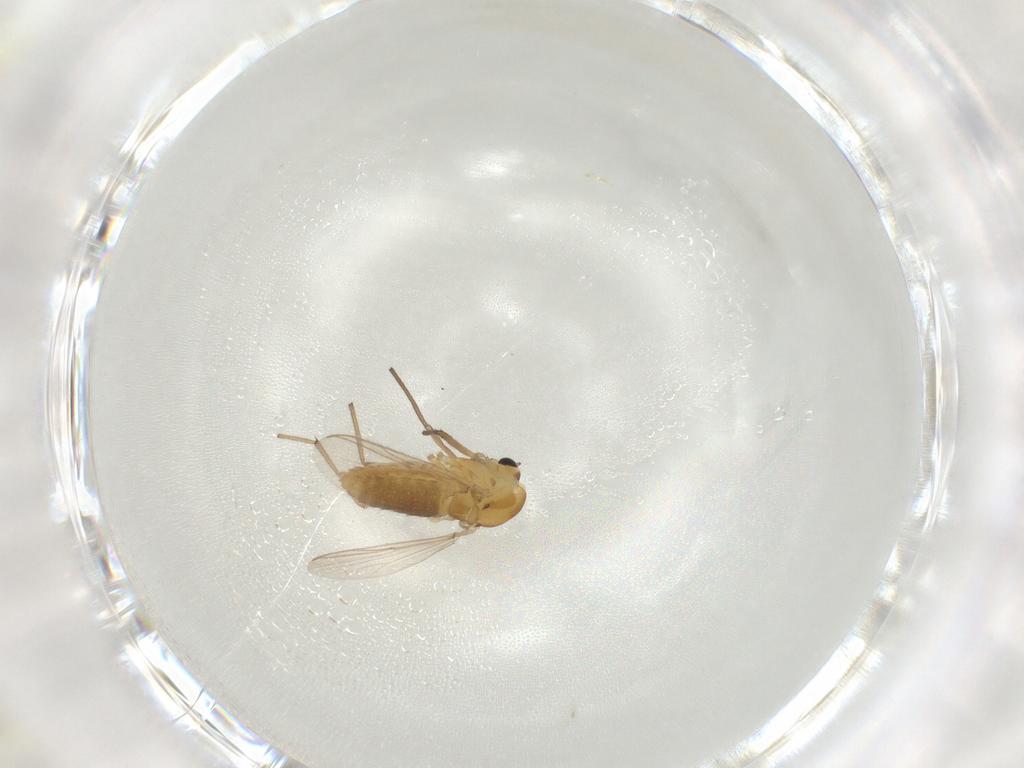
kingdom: Animalia
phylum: Arthropoda
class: Insecta
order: Diptera
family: Chironomidae
